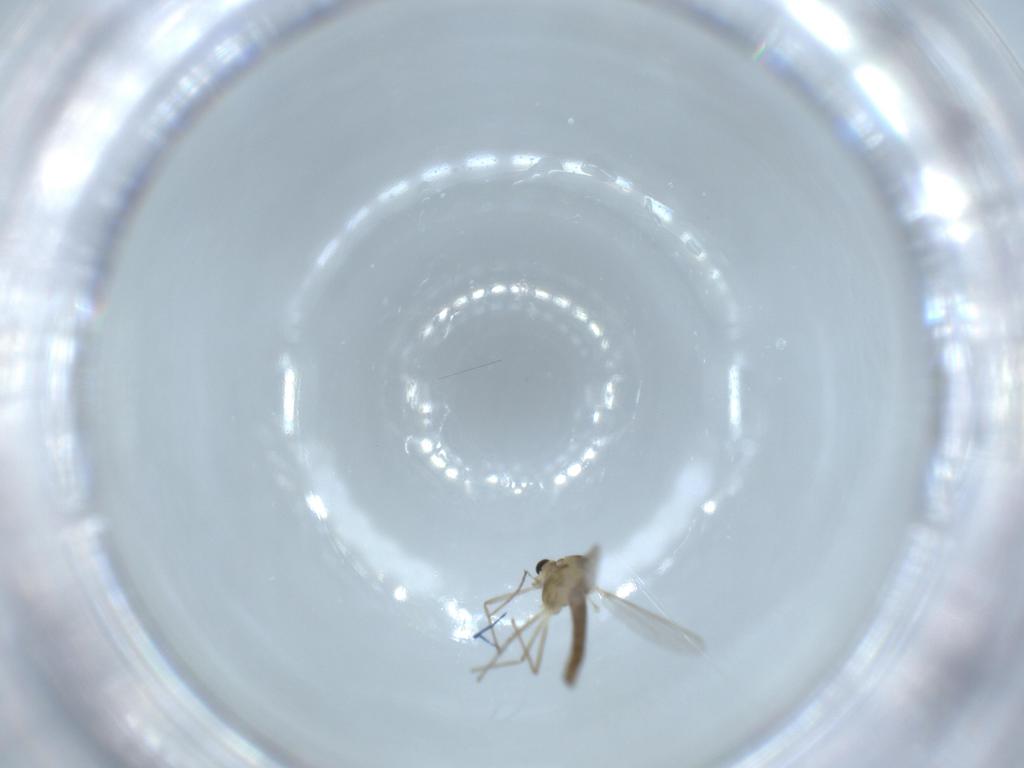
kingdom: Animalia
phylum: Arthropoda
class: Insecta
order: Diptera
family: Chironomidae
